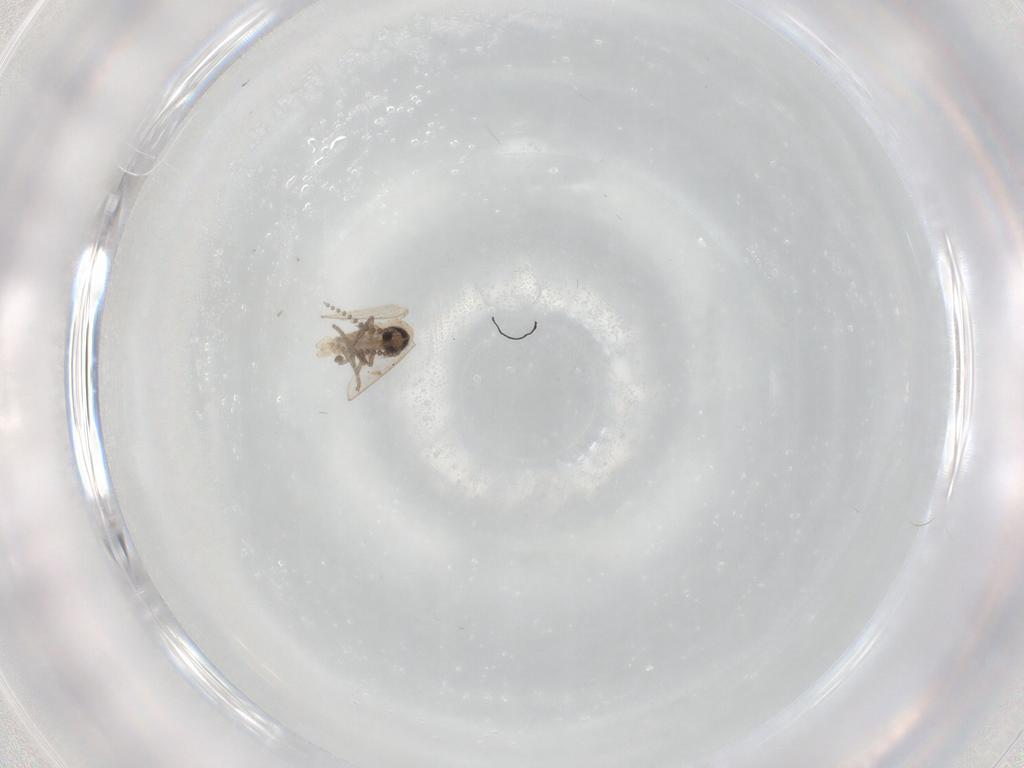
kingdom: Animalia
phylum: Arthropoda
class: Insecta
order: Diptera
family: Psychodidae
